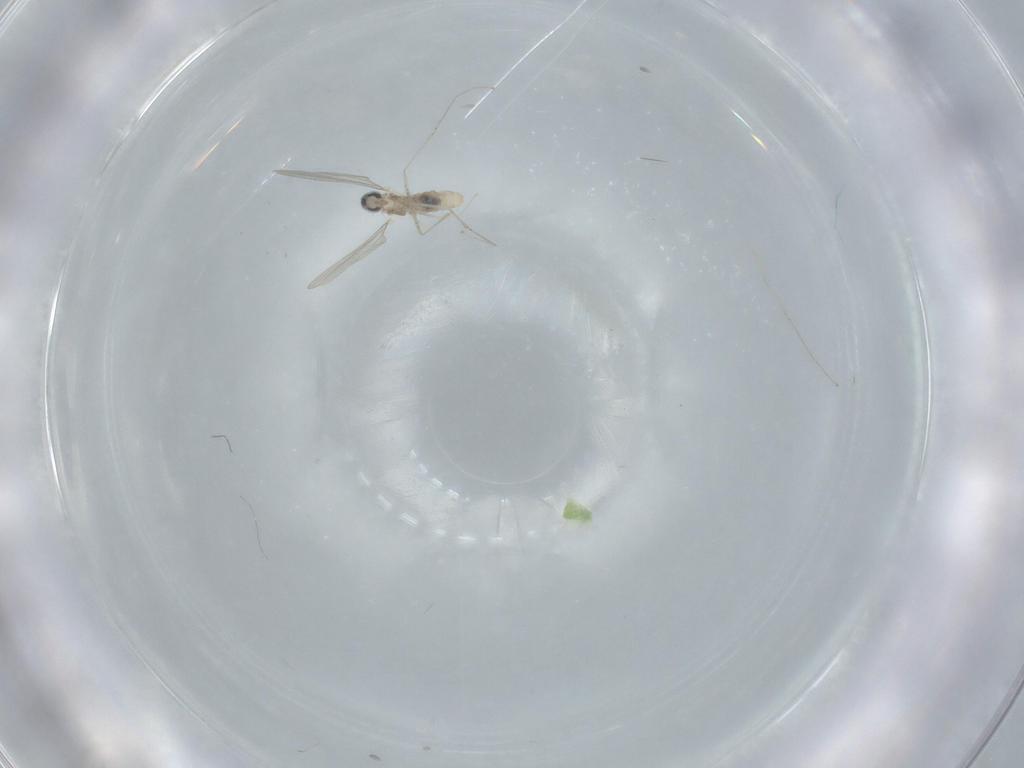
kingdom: Animalia
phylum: Arthropoda
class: Insecta
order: Diptera
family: Cecidomyiidae
